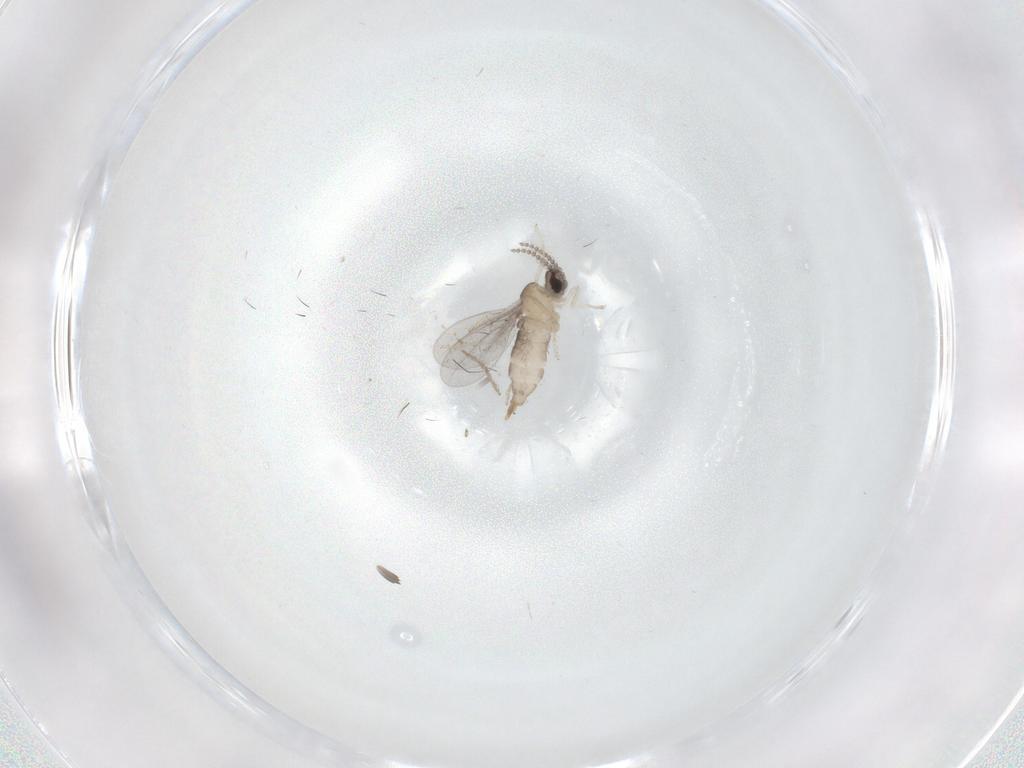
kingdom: Animalia
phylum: Arthropoda
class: Insecta
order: Diptera
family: Cecidomyiidae
